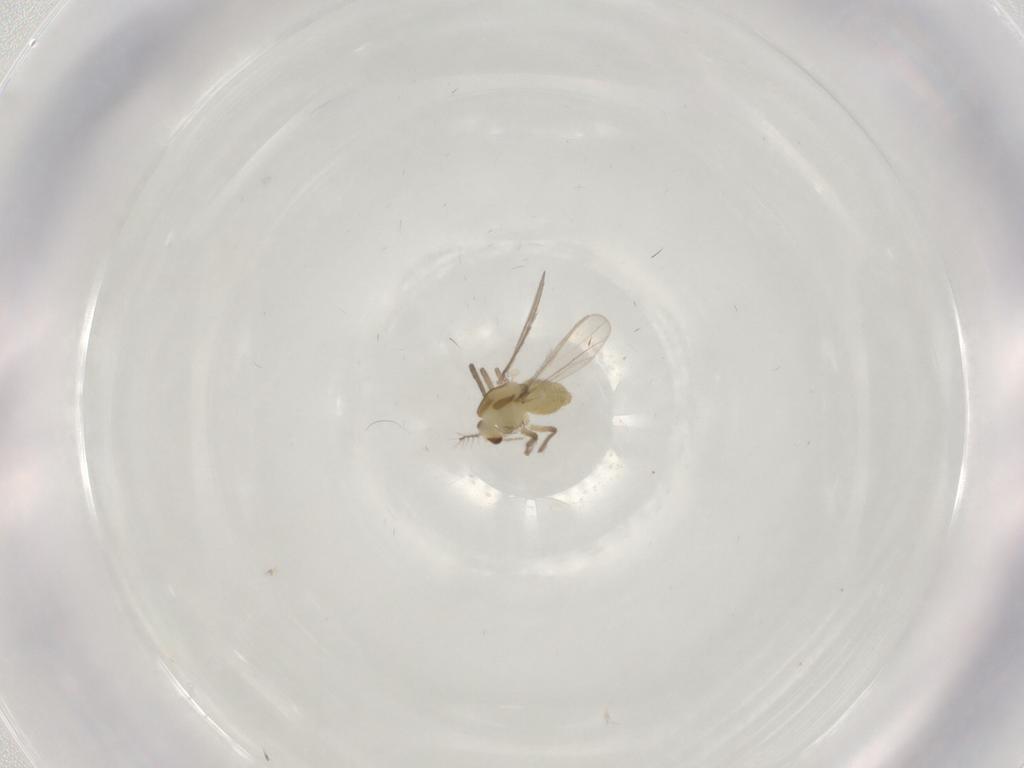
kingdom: Animalia
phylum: Arthropoda
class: Insecta
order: Diptera
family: Chironomidae
